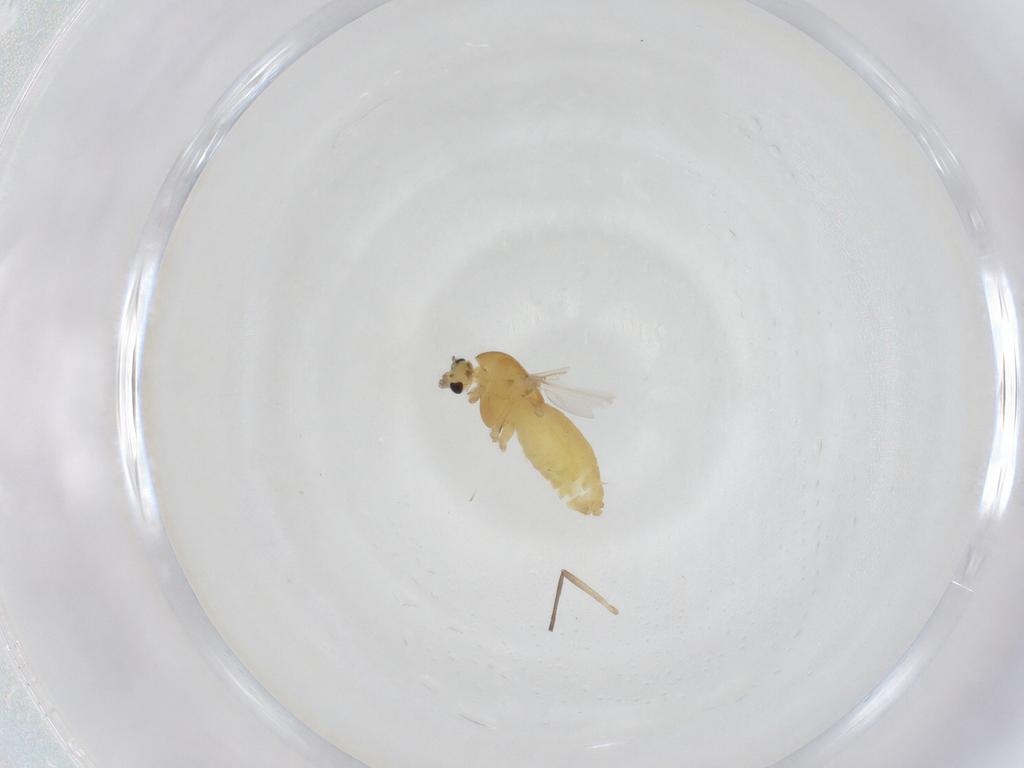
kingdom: Animalia
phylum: Arthropoda
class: Insecta
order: Diptera
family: Chironomidae
